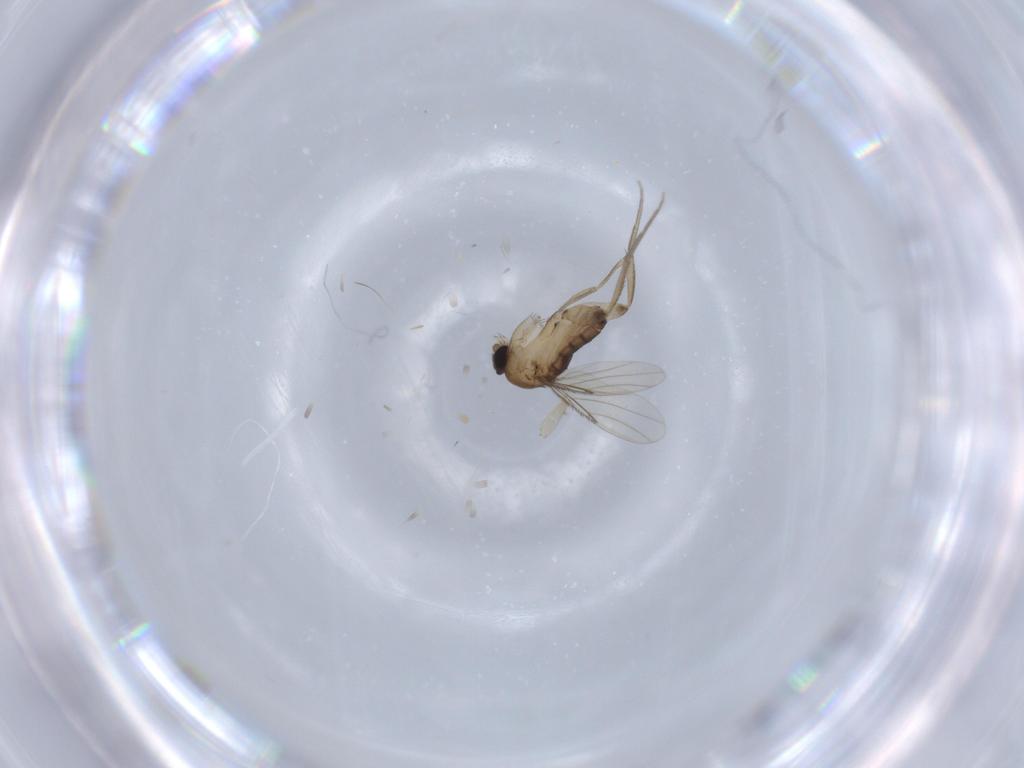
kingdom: Animalia
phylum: Arthropoda
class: Insecta
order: Diptera
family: Phoridae
